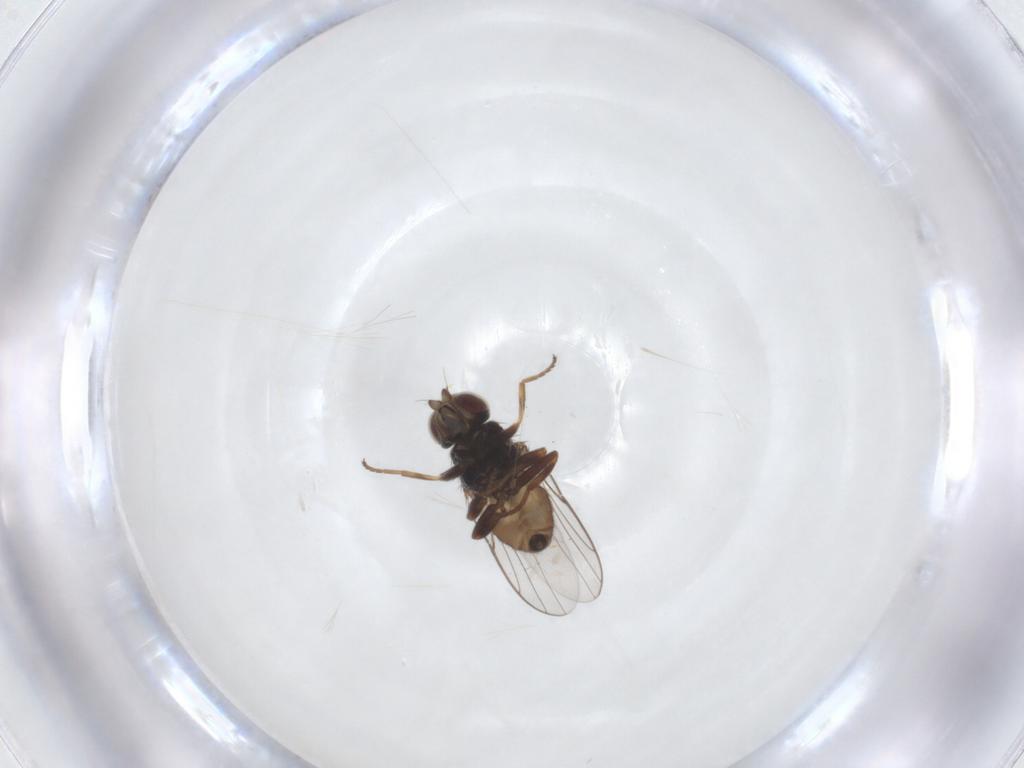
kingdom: Animalia
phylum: Arthropoda
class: Insecta
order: Diptera
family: Chloropidae
